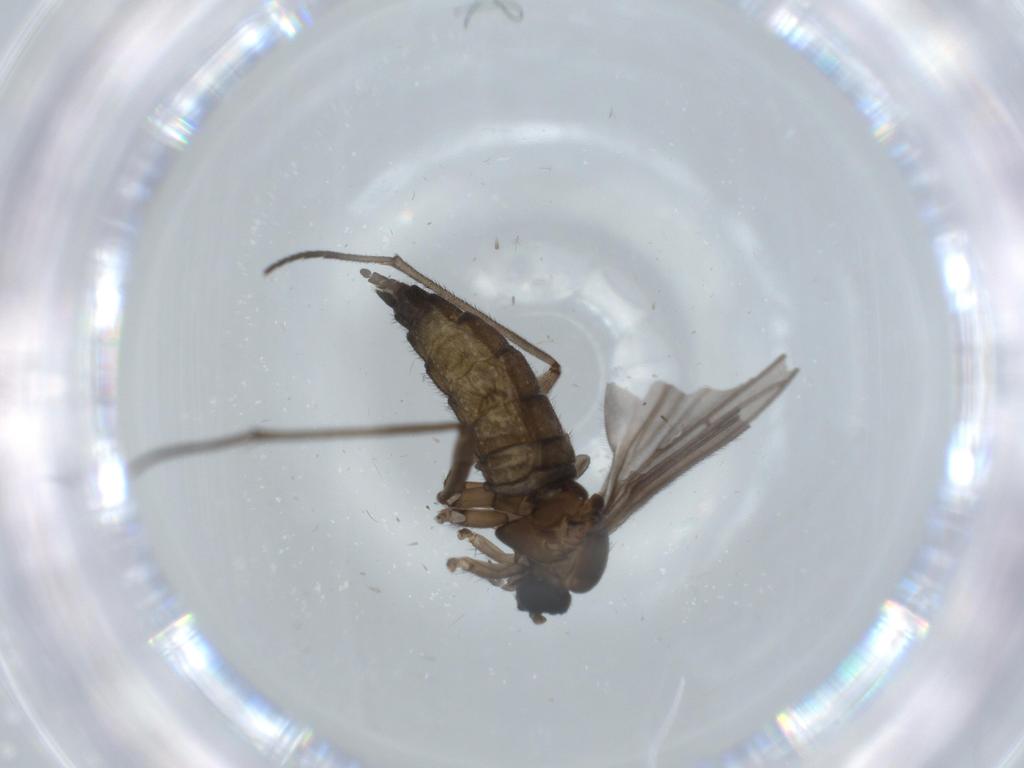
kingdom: Animalia
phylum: Arthropoda
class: Insecta
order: Diptera
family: Sciaridae
